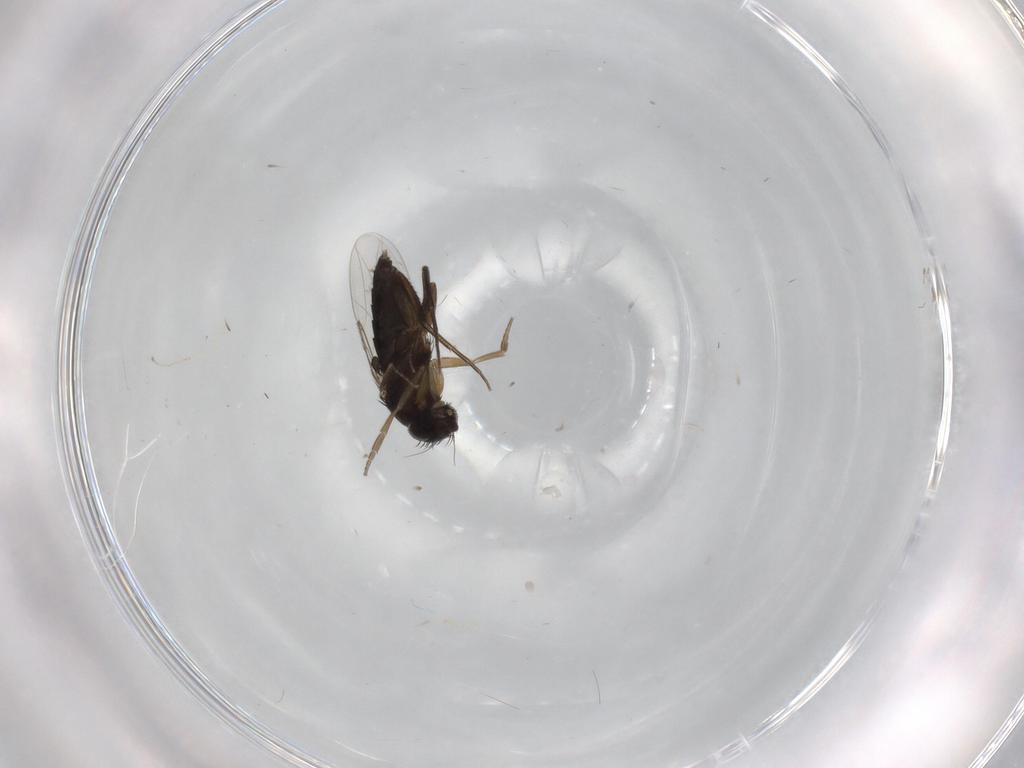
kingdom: Animalia
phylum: Arthropoda
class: Insecta
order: Diptera
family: Phoridae
